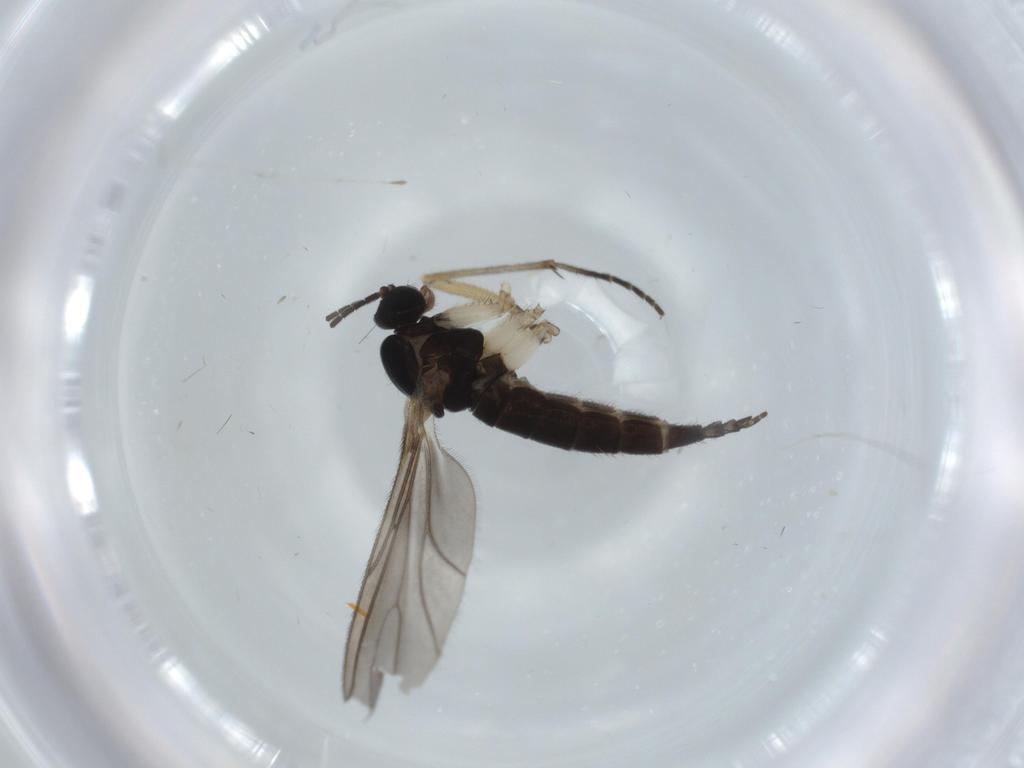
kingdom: Animalia
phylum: Arthropoda
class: Insecta
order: Diptera
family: Sciaridae
